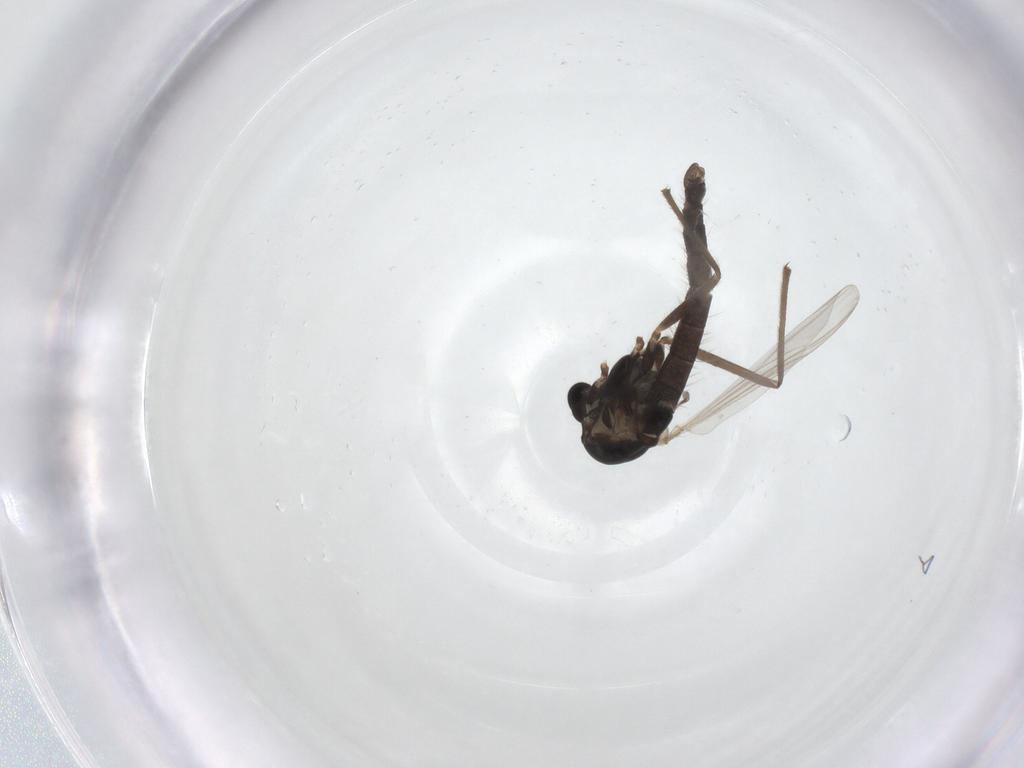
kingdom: Animalia
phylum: Arthropoda
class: Insecta
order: Diptera
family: Chironomidae
